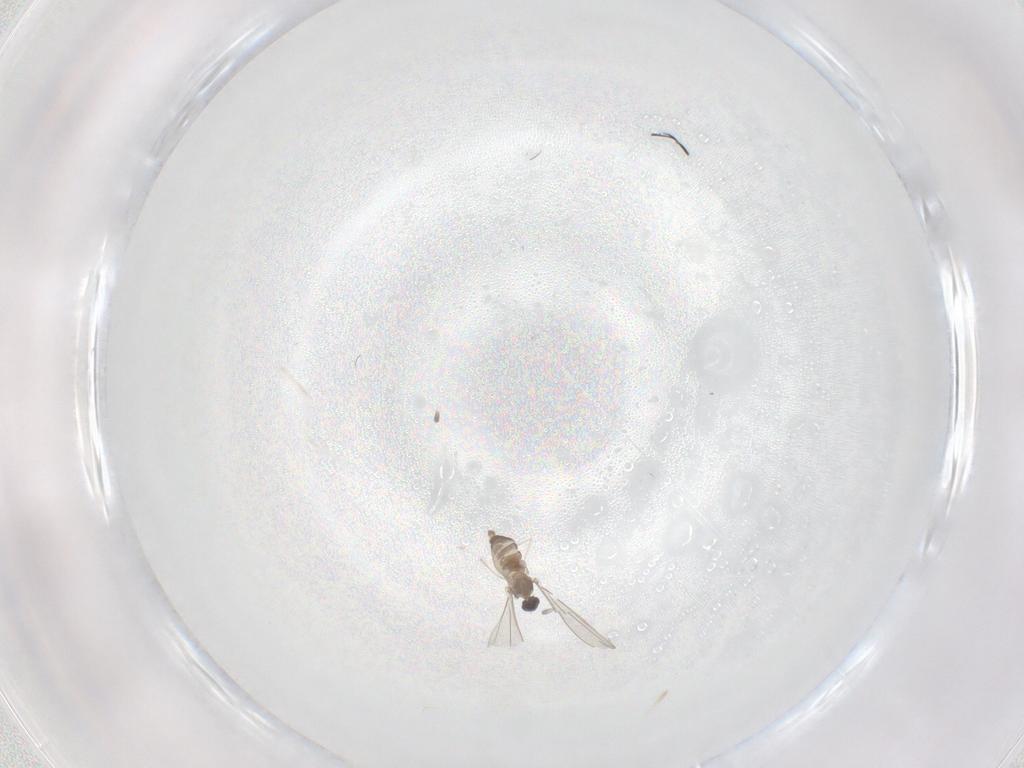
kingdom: Animalia
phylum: Arthropoda
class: Insecta
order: Diptera
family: Cecidomyiidae
